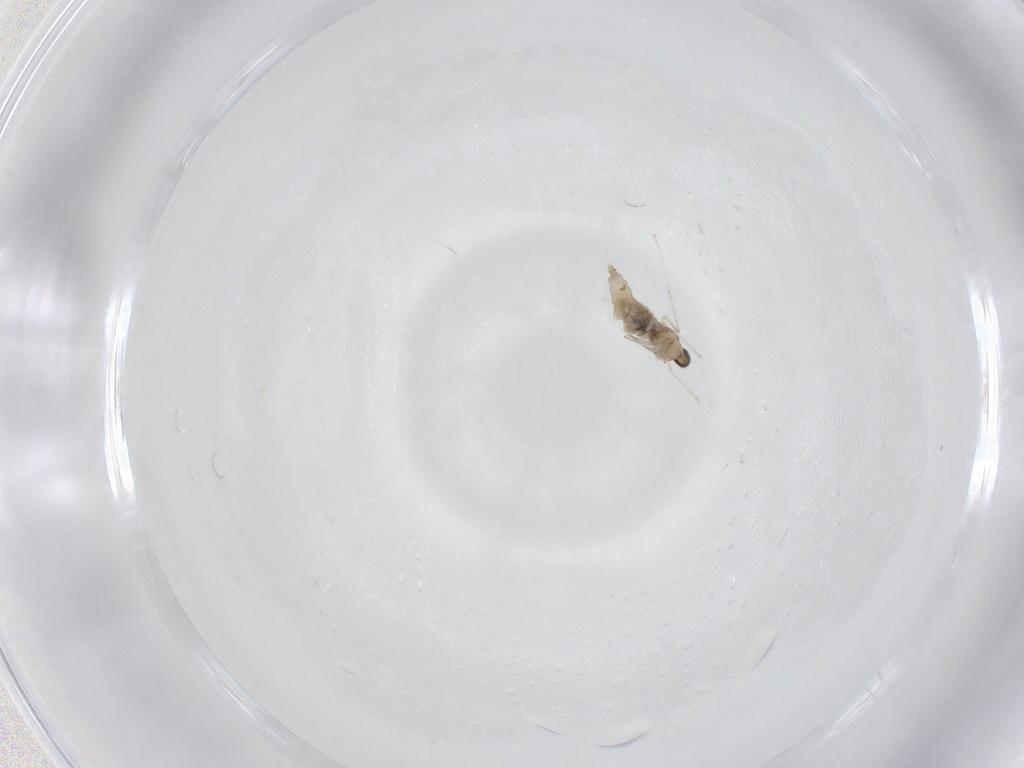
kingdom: Animalia
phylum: Arthropoda
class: Insecta
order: Diptera
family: Cecidomyiidae
